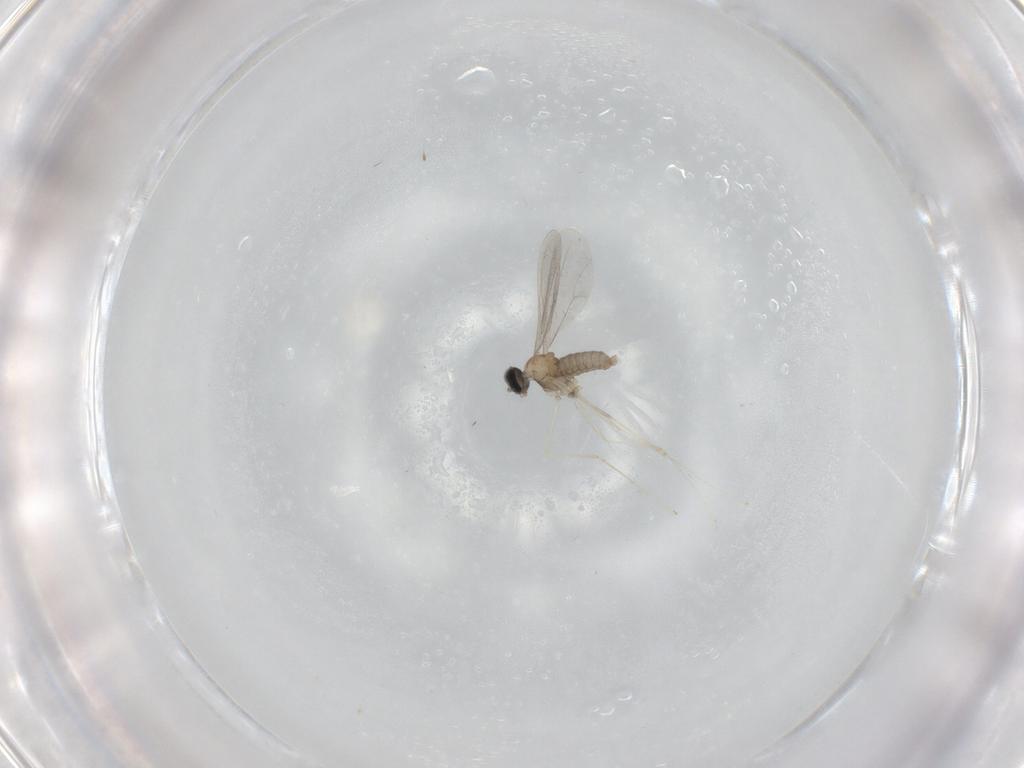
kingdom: Animalia
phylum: Arthropoda
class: Insecta
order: Diptera
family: Cecidomyiidae
